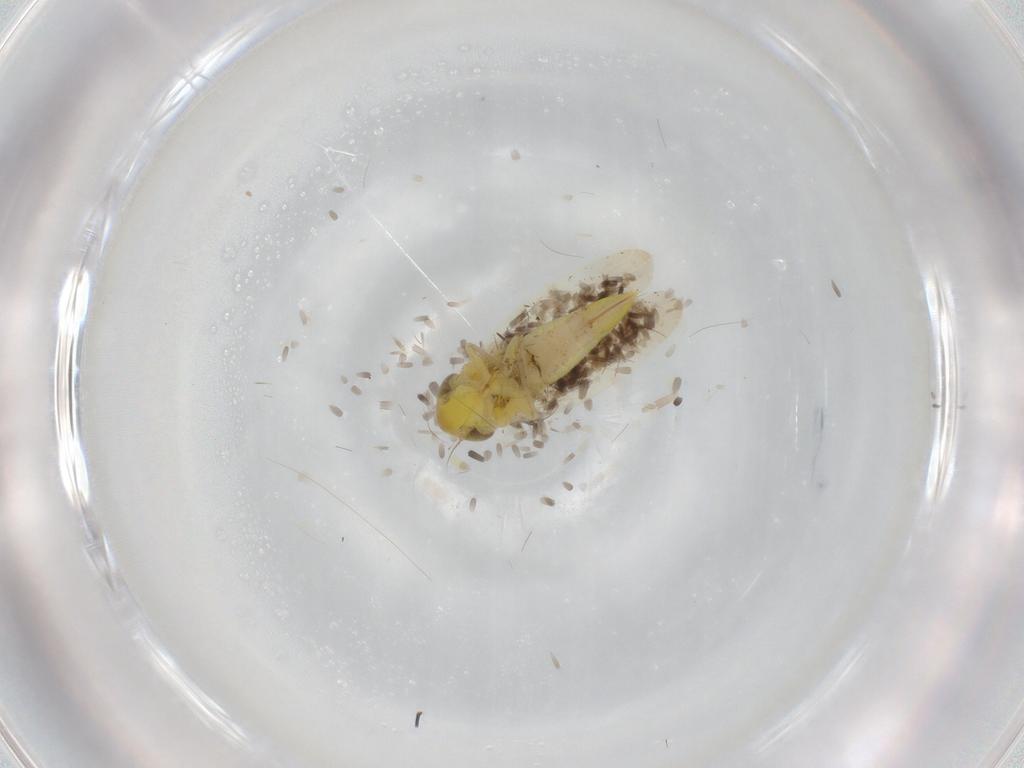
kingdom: Animalia
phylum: Arthropoda
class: Insecta
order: Hemiptera
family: Cicadellidae
